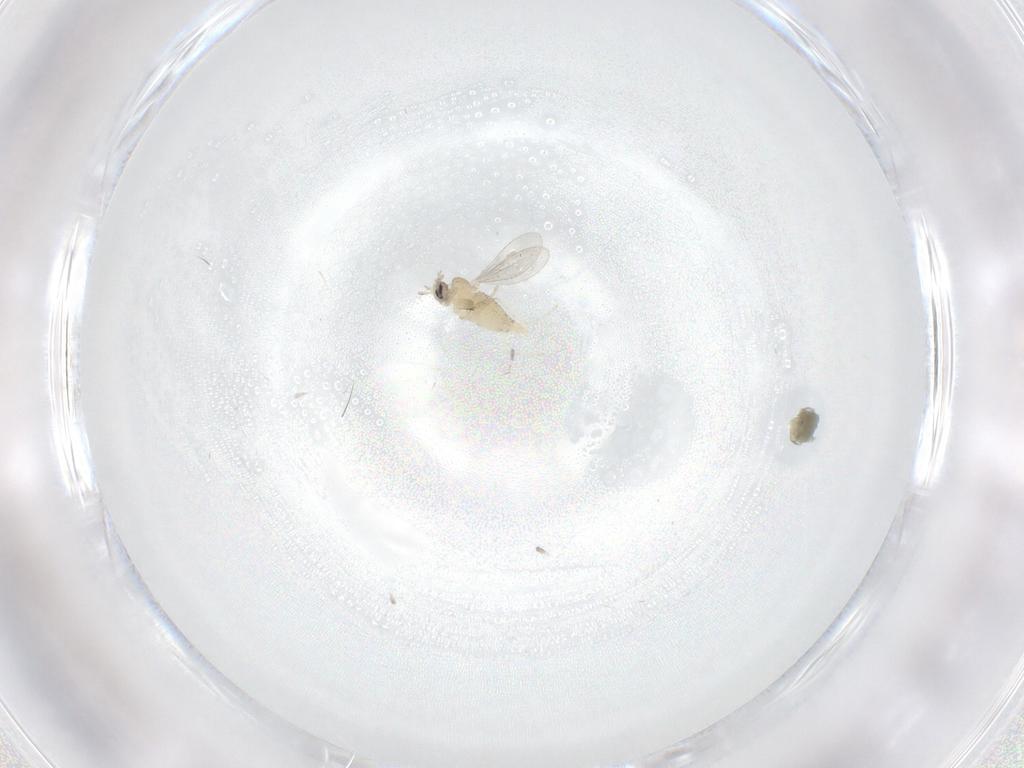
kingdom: Animalia
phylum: Arthropoda
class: Insecta
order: Diptera
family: Cecidomyiidae
